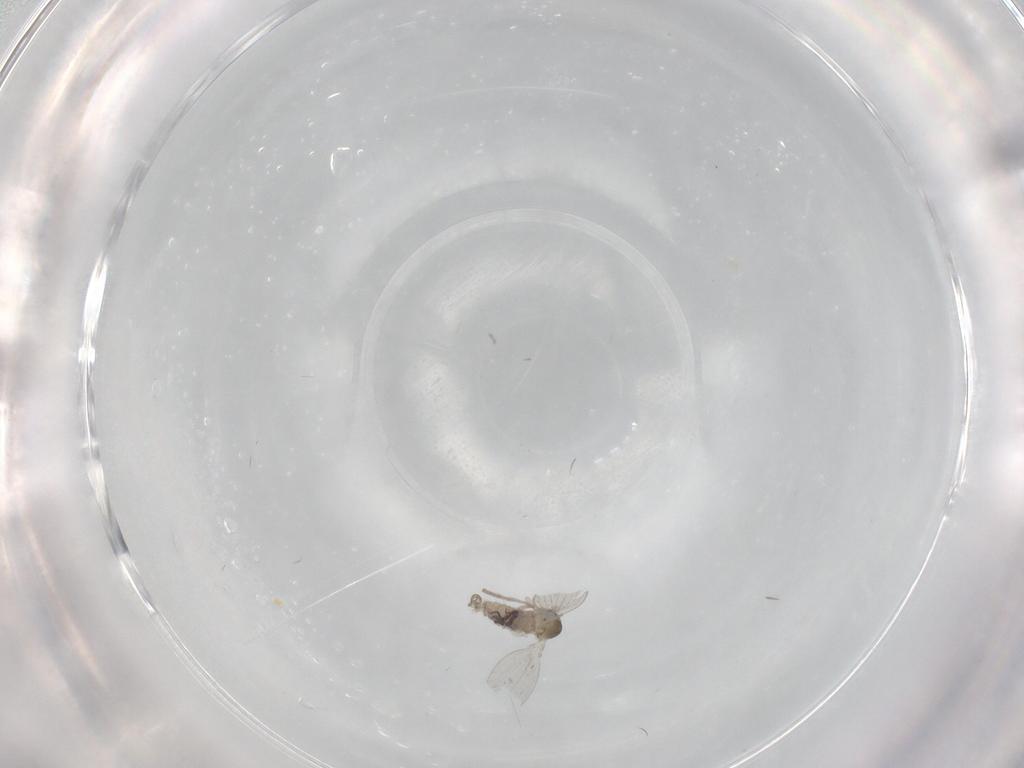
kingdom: Animalia
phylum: Arthropoda
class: Insecta
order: Diptera
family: Psychodidae
